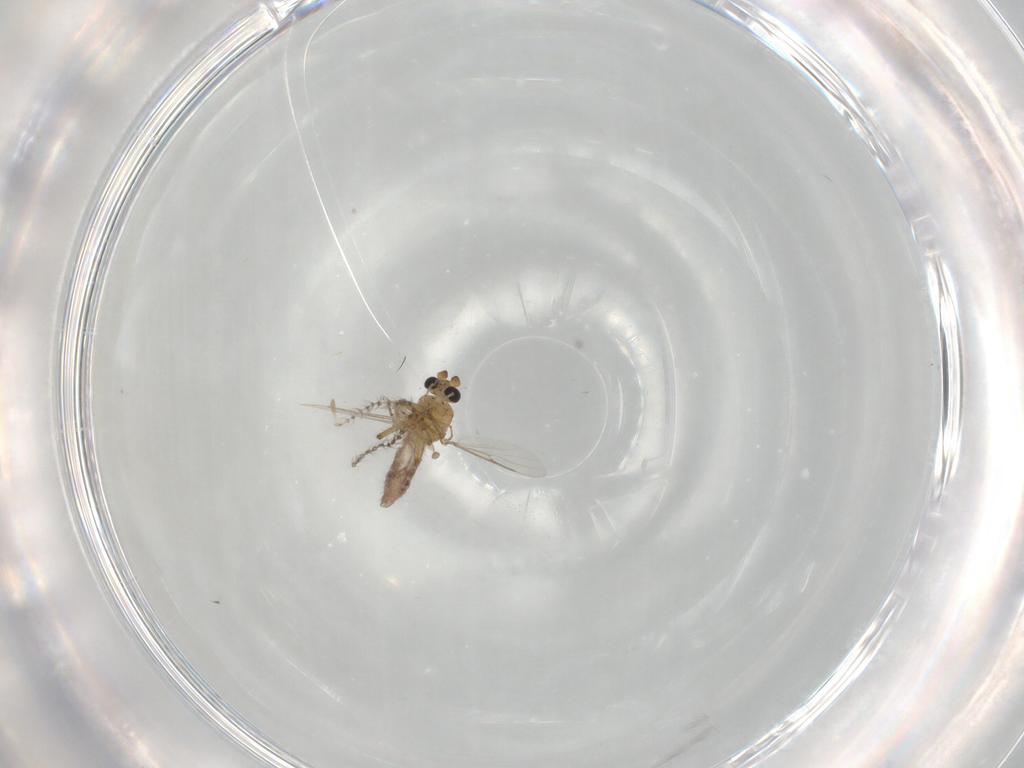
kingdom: Animalia
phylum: Arthropoda
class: Insecta
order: Diptera
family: Ceratopogonidae
